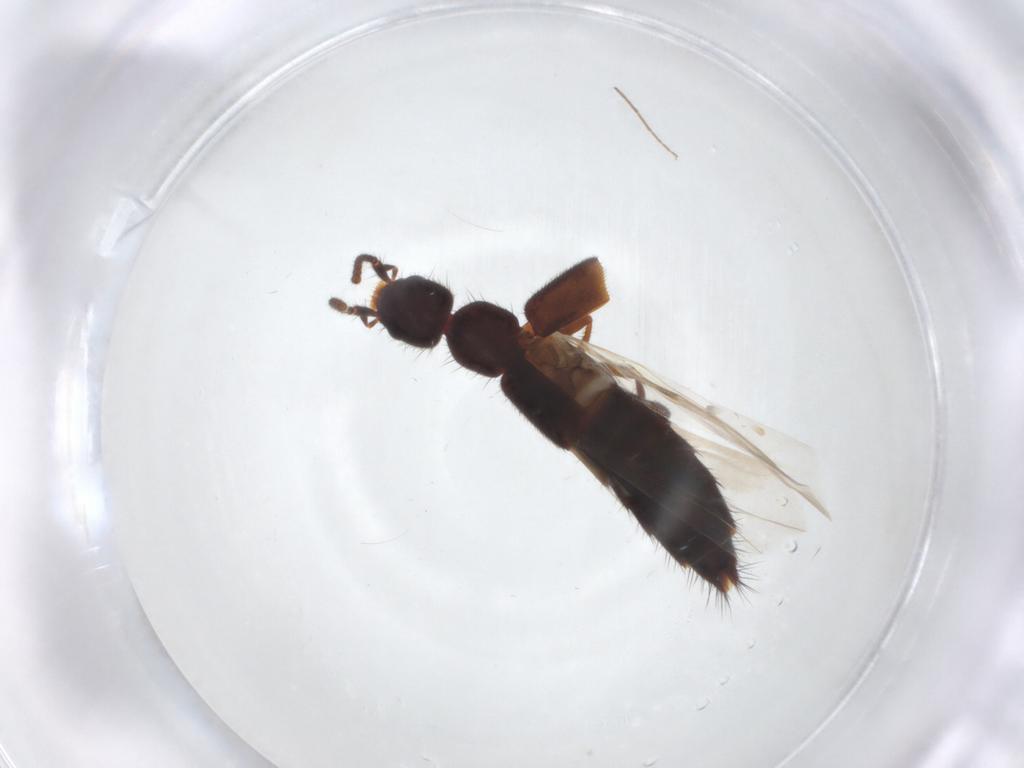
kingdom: Animalia
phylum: Arthropoda
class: Insecta
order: Coleoptera
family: Staphylinidae
